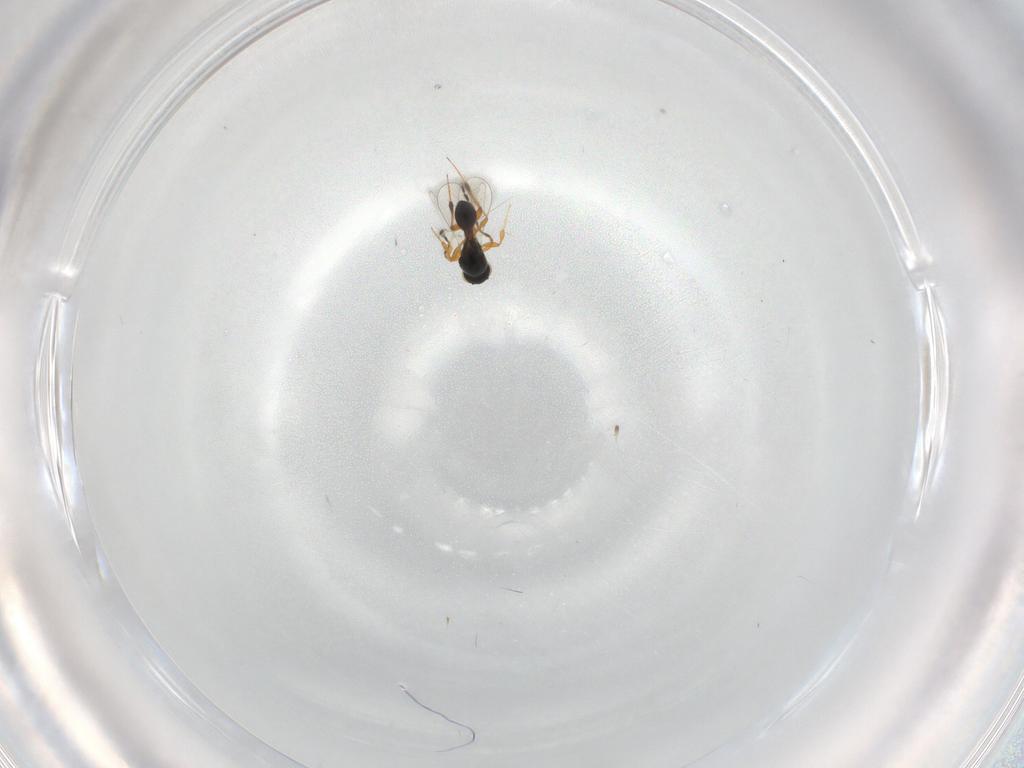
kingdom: Animalia
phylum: Arthropoda
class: Insecta
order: Hymenoptera
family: Platygastridae
